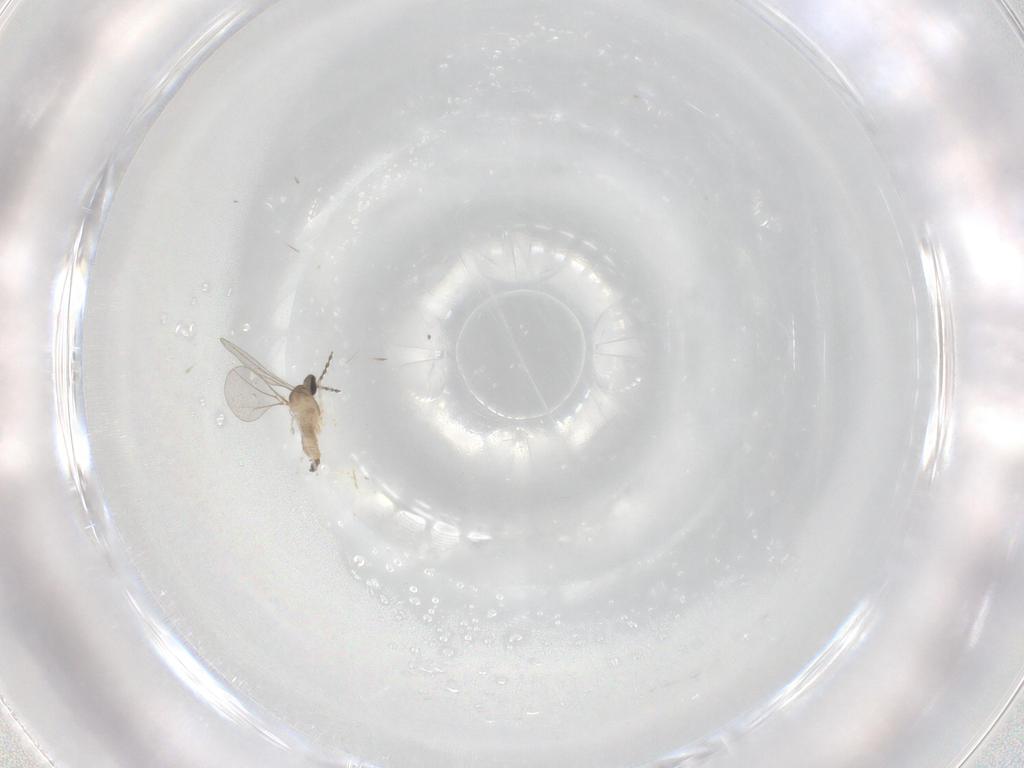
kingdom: Animalia
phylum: Arthropoda
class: Insecta
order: Diptera
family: Cecidomyiidae
